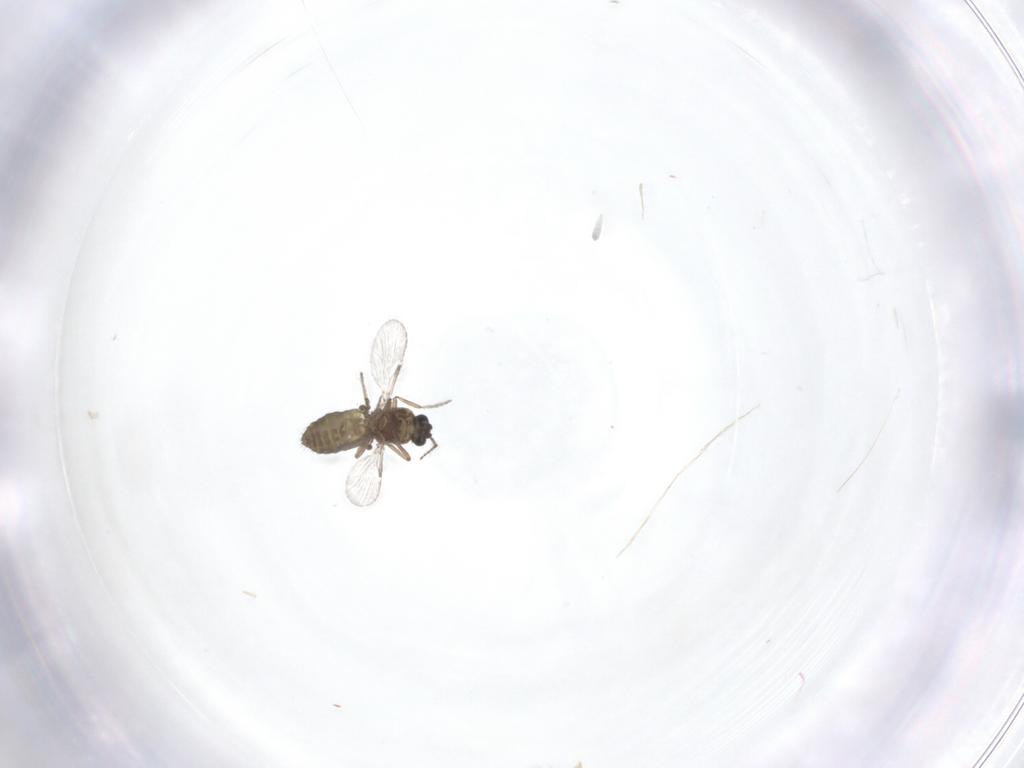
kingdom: Animalia
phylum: Arthropoda
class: Insecta
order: Diptera
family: Ceratopogonidae
